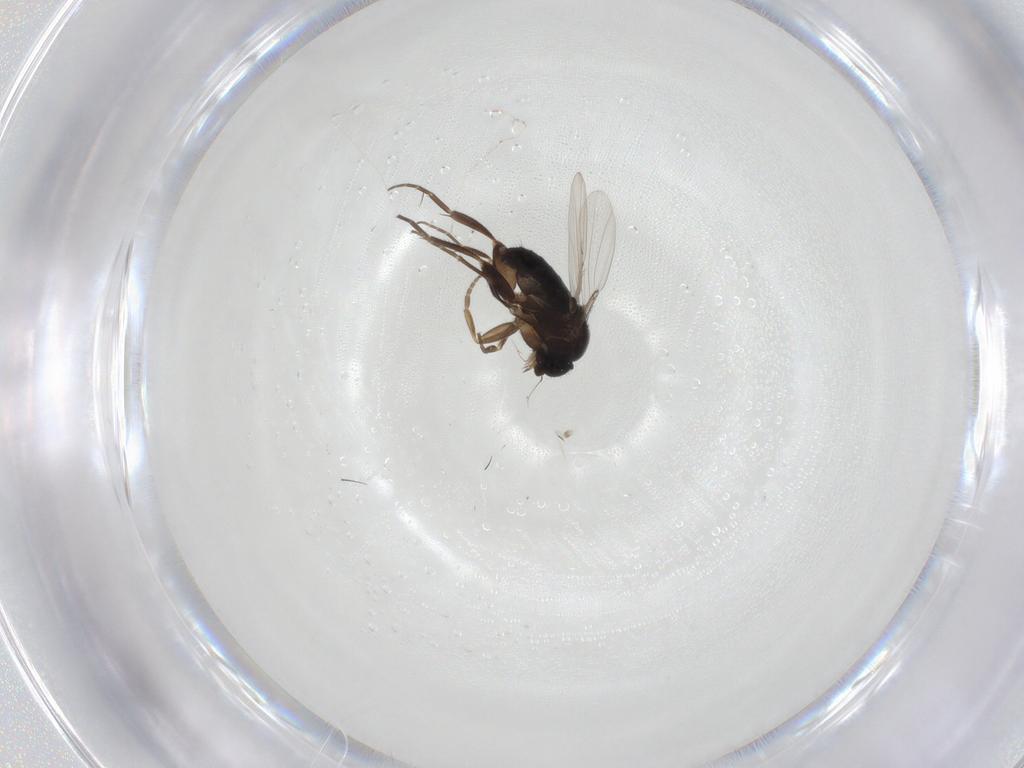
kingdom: Animalia
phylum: Arthropoda
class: Insecta
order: Diptera
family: Phoridae
